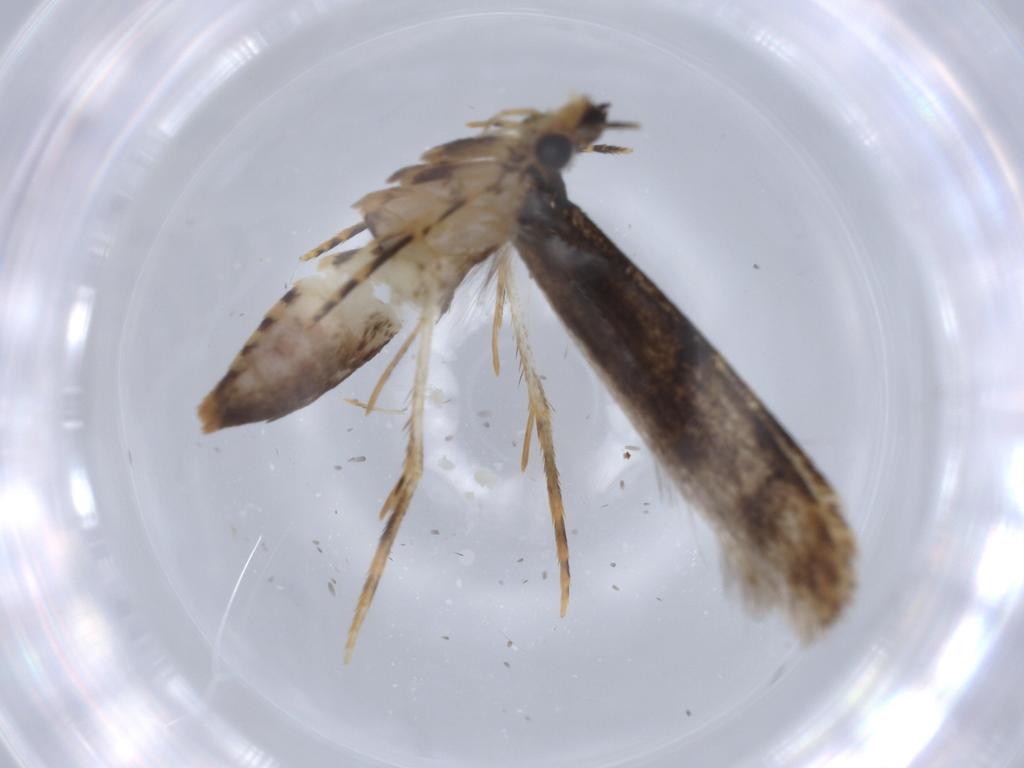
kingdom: Animalia
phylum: Arthropoda
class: Insecta
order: Lepidoptera
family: Tineidae
